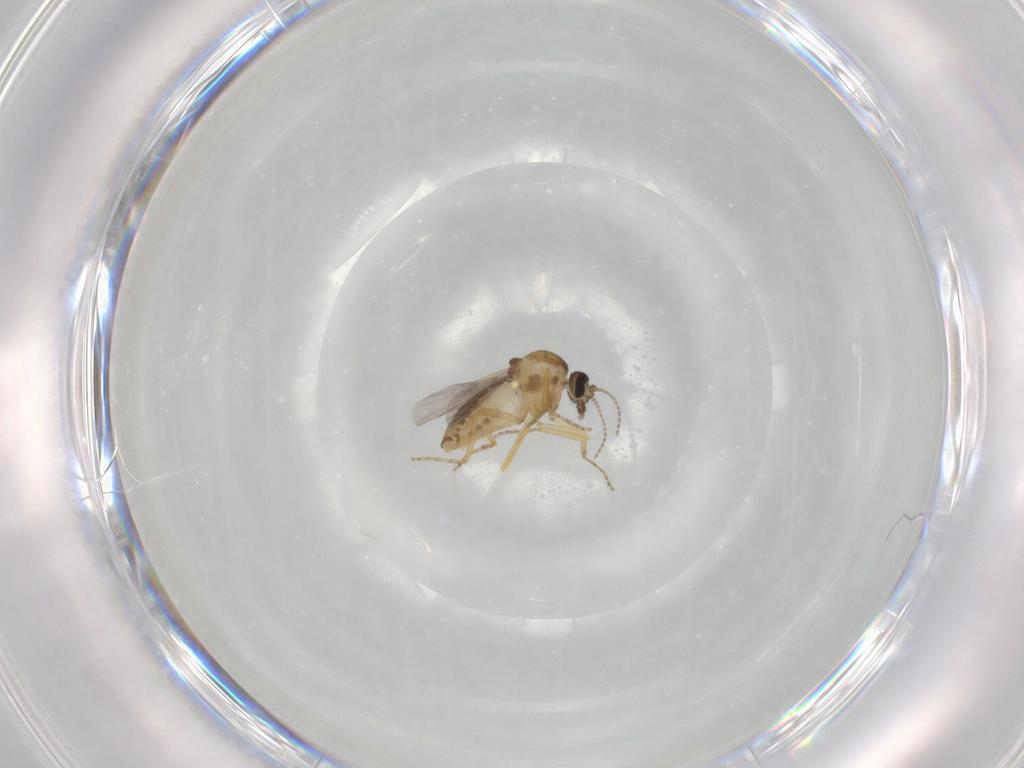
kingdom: Animalia
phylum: Arthropoda
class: Insecta
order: Diptera
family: Ceratopogonidae
